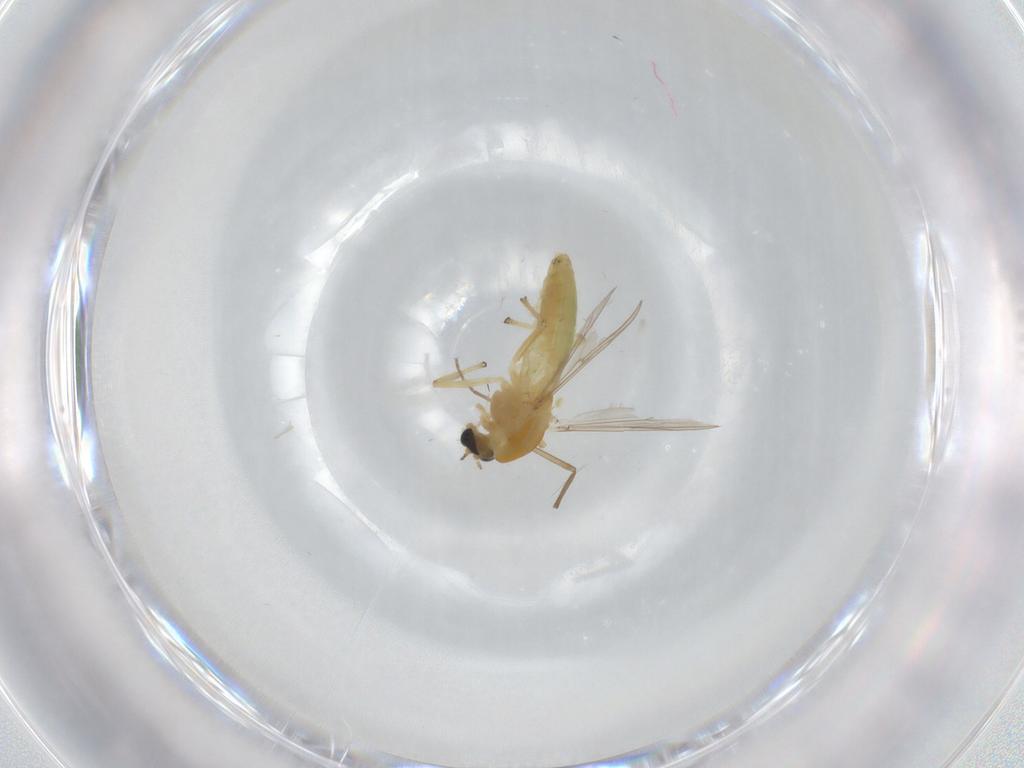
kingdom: Animalia
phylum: Arthropoda
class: Insecta
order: Diptera
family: Chironomidae
